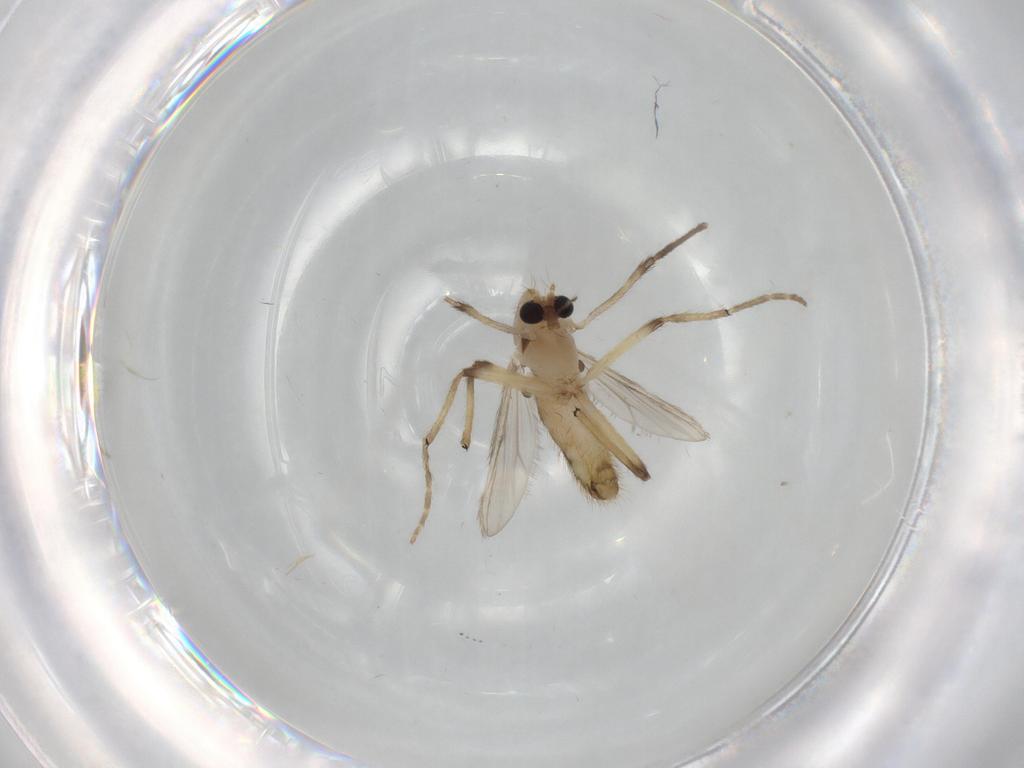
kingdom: Animalia
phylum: Arthropoda
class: Insecta
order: Diptera
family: Chironomidae
